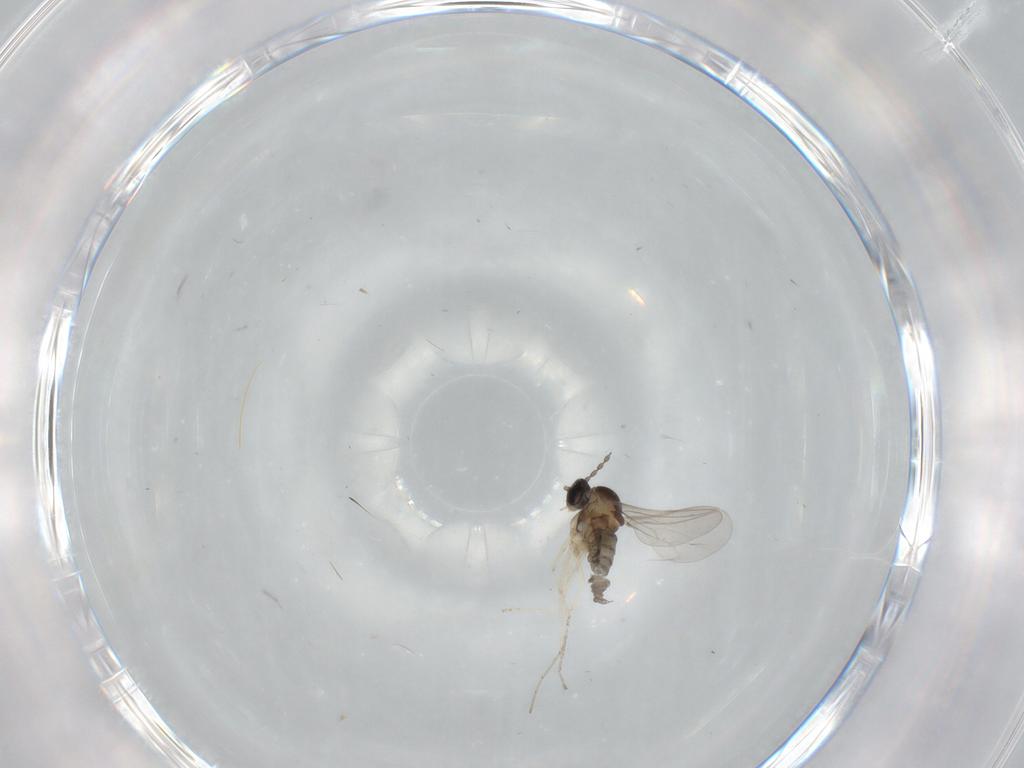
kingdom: Animalia
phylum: Arthropoda
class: Insecta
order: Diptera
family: Cecidomyiidae
